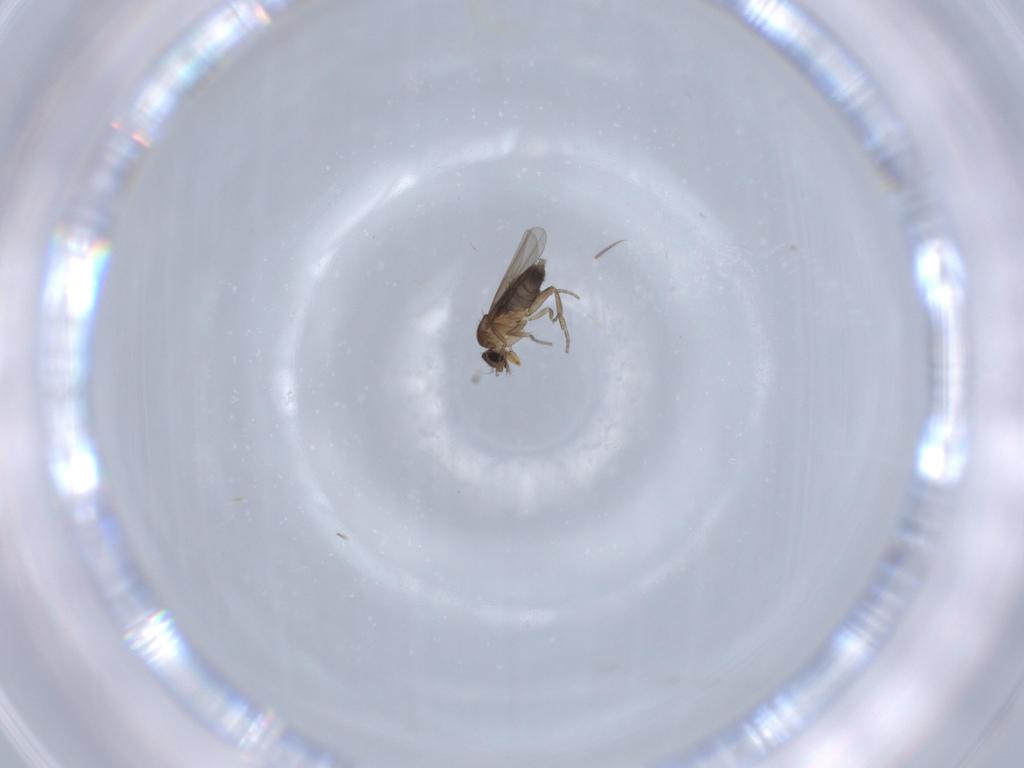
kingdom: Animalia
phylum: Arthropoda
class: Insecta
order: Diptera
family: Phoridae
